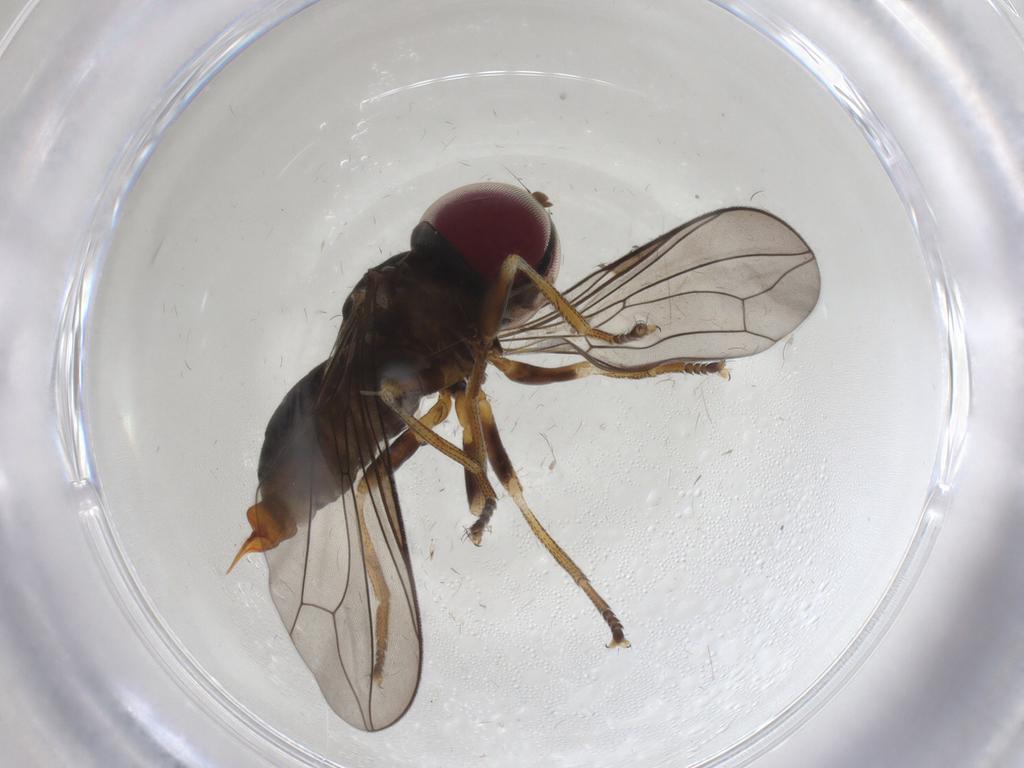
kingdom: Animalia
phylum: Arthropoda
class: Insecta
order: Diptera
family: Pipunculidae
